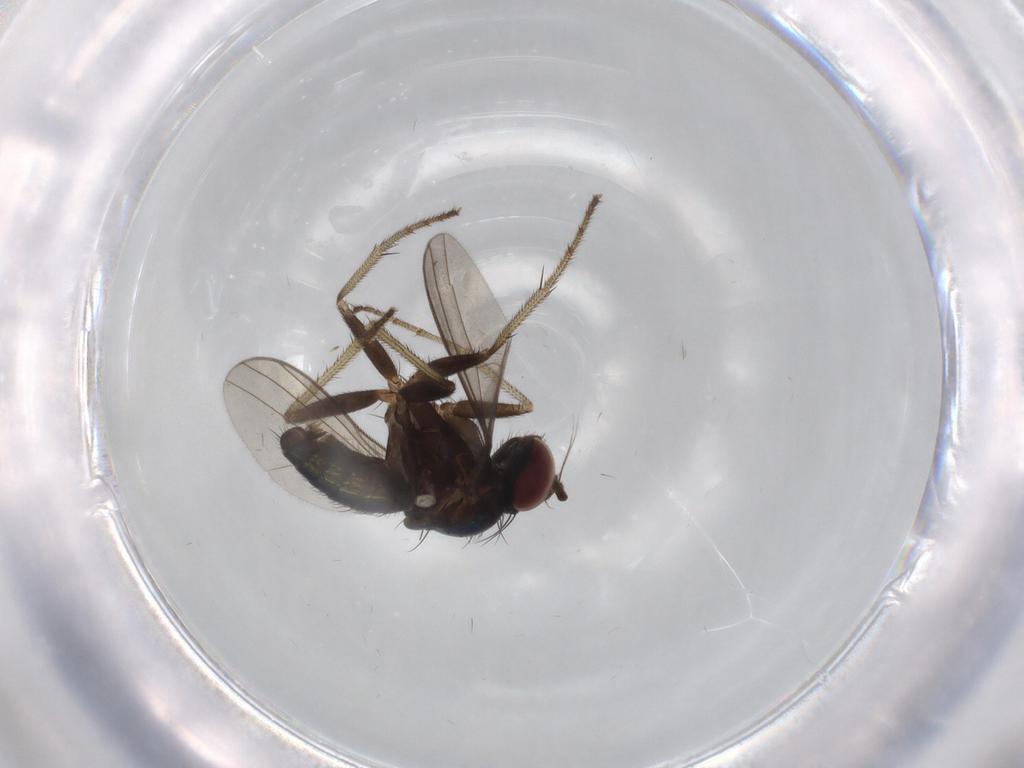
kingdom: Animalia
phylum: Arthropoda
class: Insecta
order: Diptera
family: Dolichopodidae
